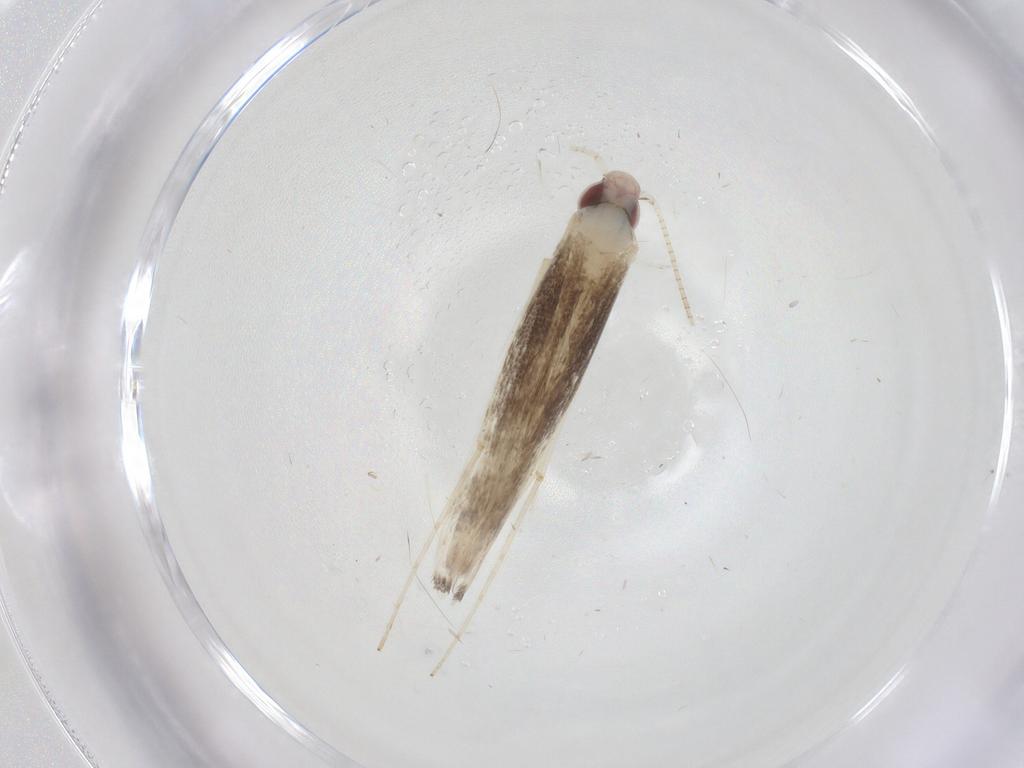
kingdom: Animalia
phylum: Arthropoda
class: Insecta
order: Lepidoptera
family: Gracillariidae
